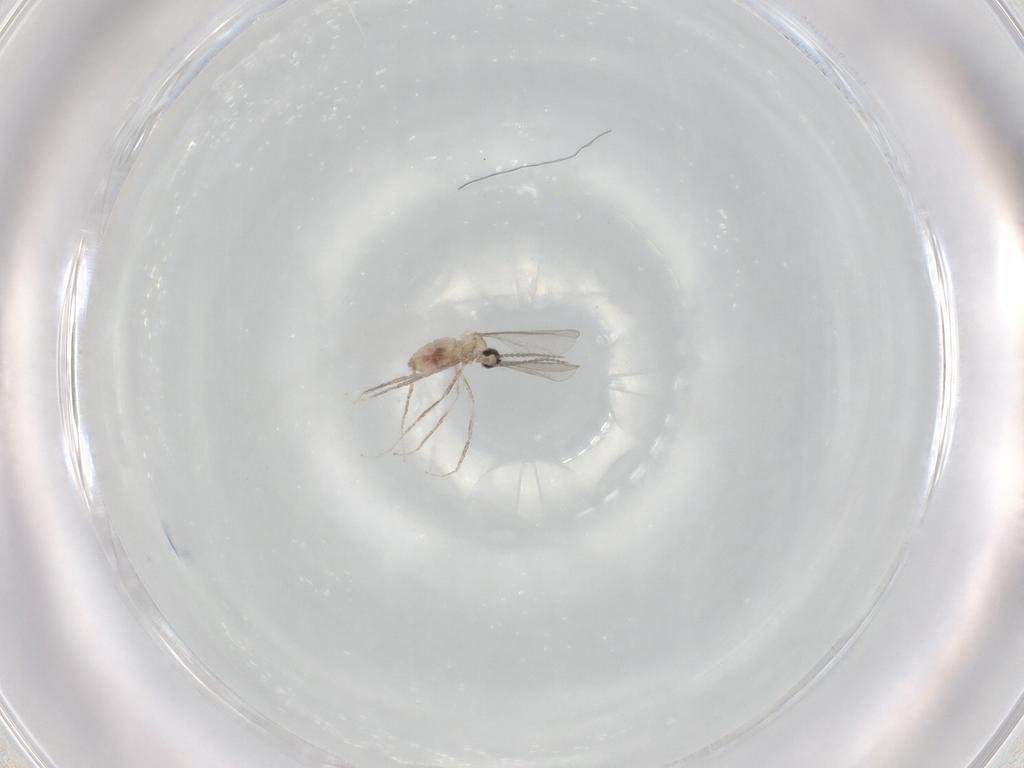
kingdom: Animalia
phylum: Arthropoda
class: Insecta
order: Diptera
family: Cecidomyiidae
